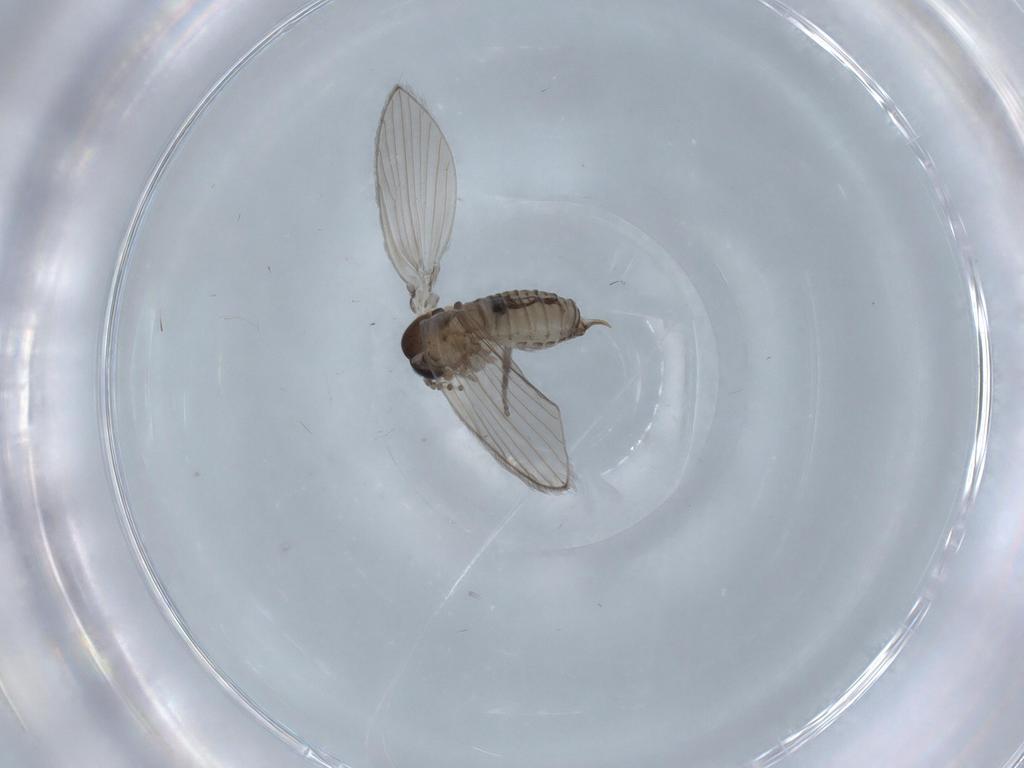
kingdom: Animalia
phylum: Arthropoda
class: Insecta
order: Diptera
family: Psychodidae
